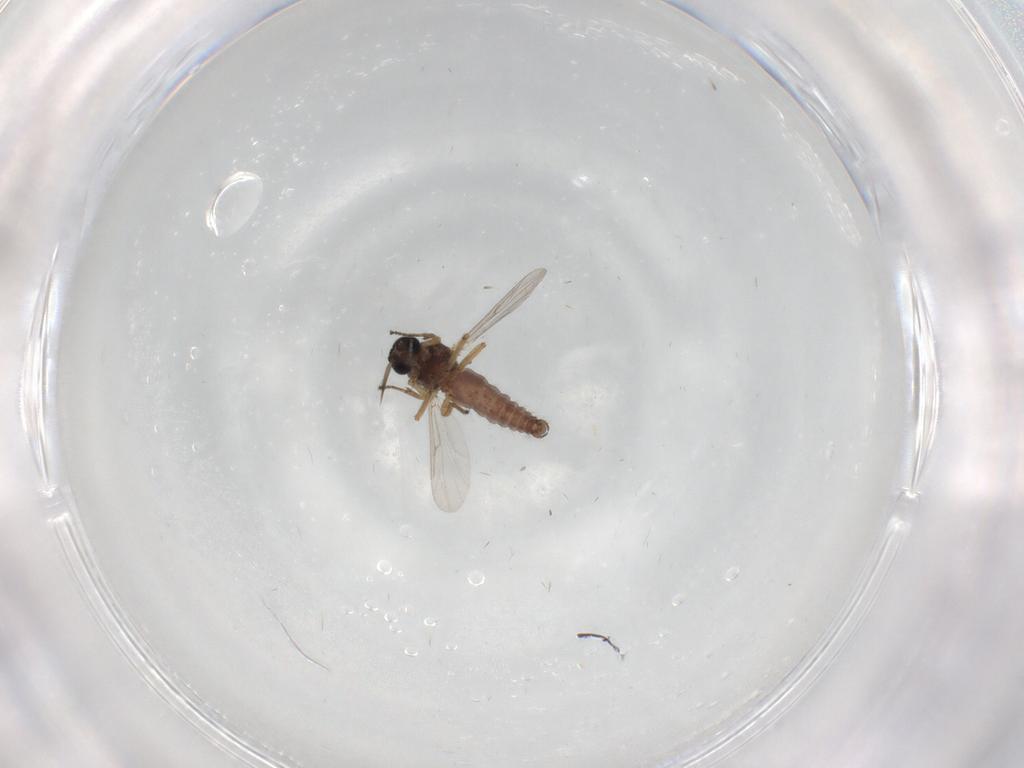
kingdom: Animalia
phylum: Arthropoda
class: Insecta
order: Diptera
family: Ceratopogonidae
